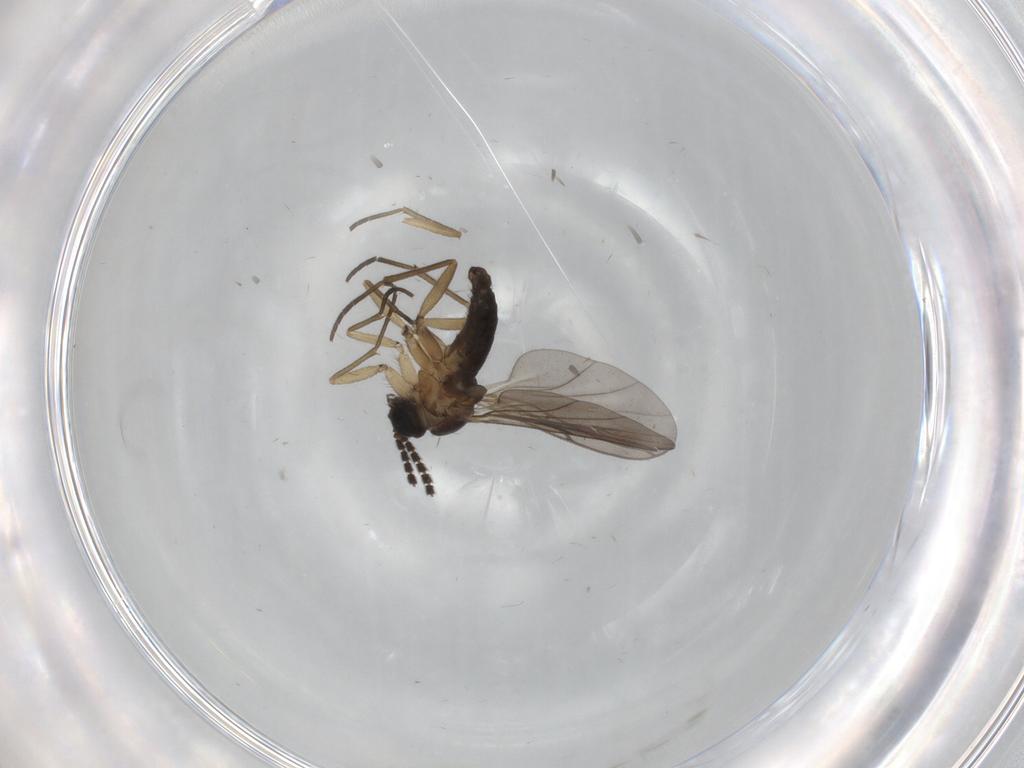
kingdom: Animalia
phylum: Arthropoda
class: Insecta
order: Diptera
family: Sciaridae
